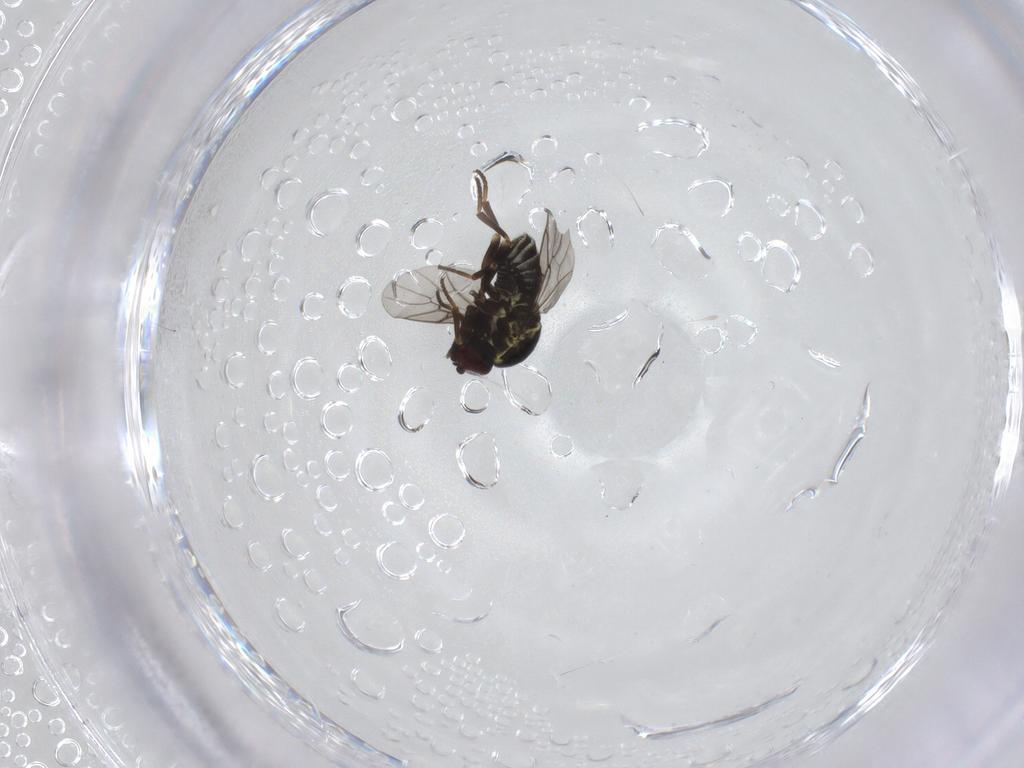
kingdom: Animalia
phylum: Arthropoda
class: Insecta
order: Diptera
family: Bombyliidae
